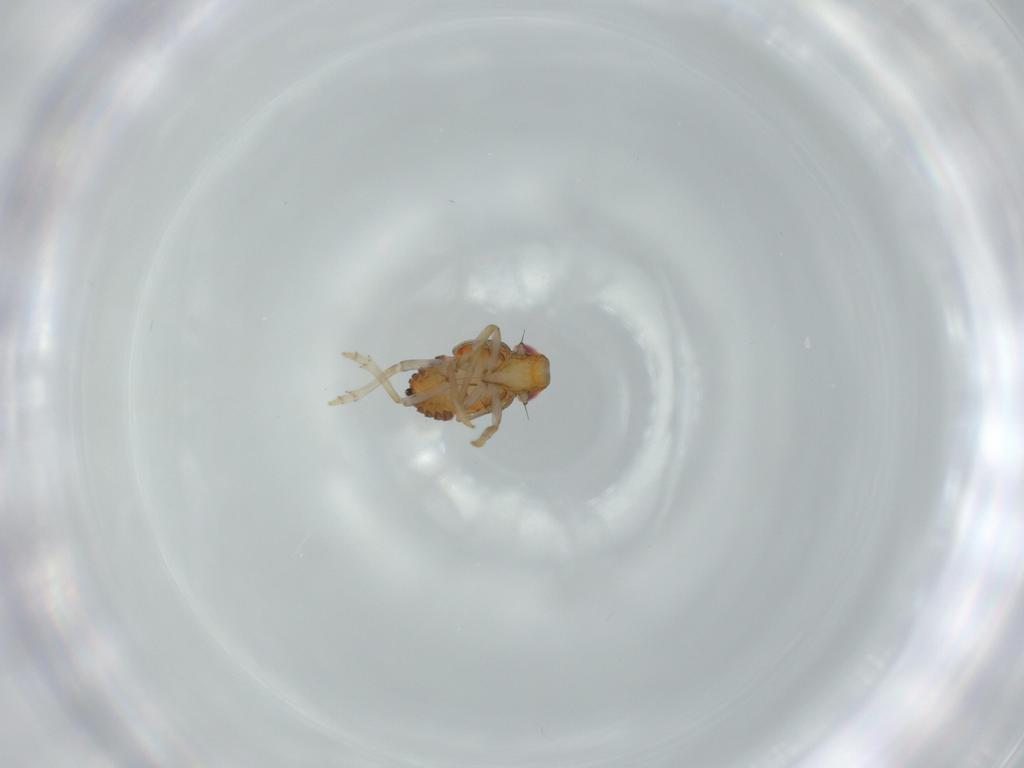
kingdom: Animalia
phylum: Arthropoda
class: Insecta
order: Hemiptera
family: Issidae
